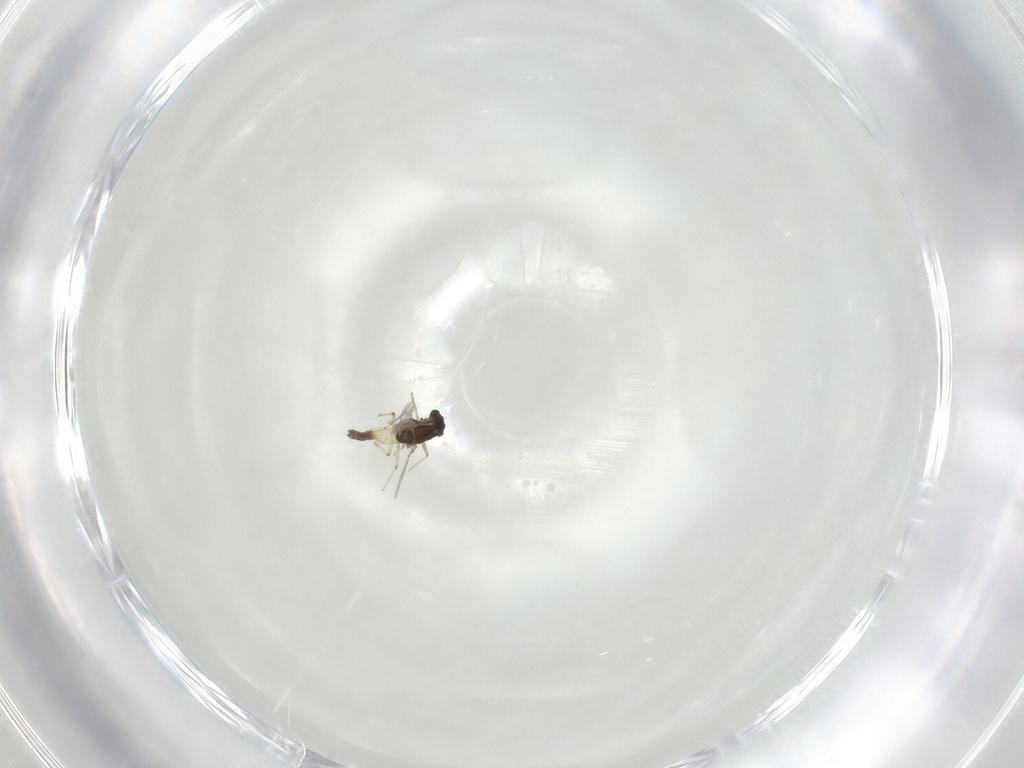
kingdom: Animalia
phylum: Arthropoda
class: Insecta
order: Diptera
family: Chironomidae
